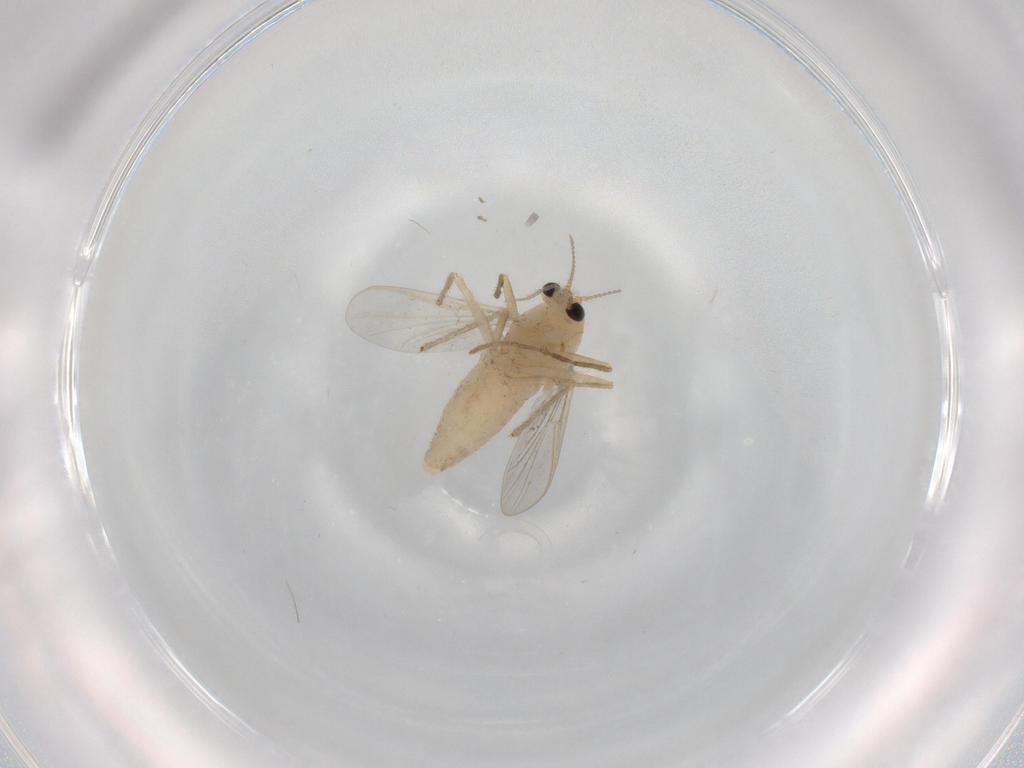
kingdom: Animalia
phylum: Arthropoda
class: Insecta
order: Diptera
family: Chironomidae
